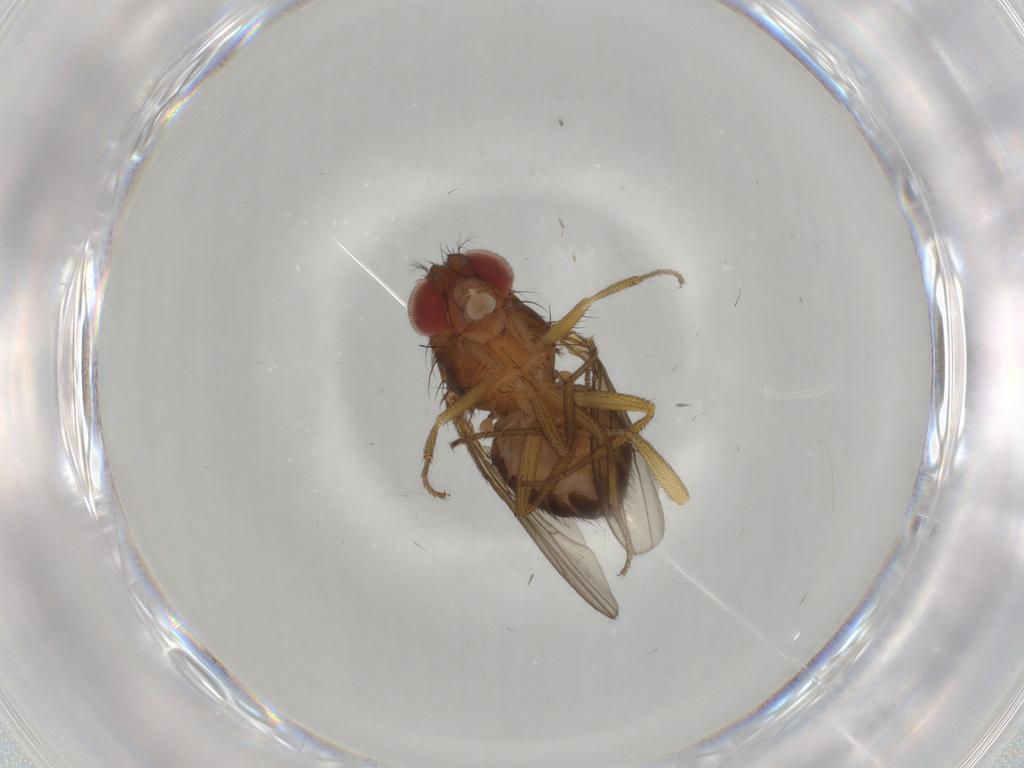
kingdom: Animalia
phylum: Arthropoda
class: Insecta
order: Diptera
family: Drosophilidae
